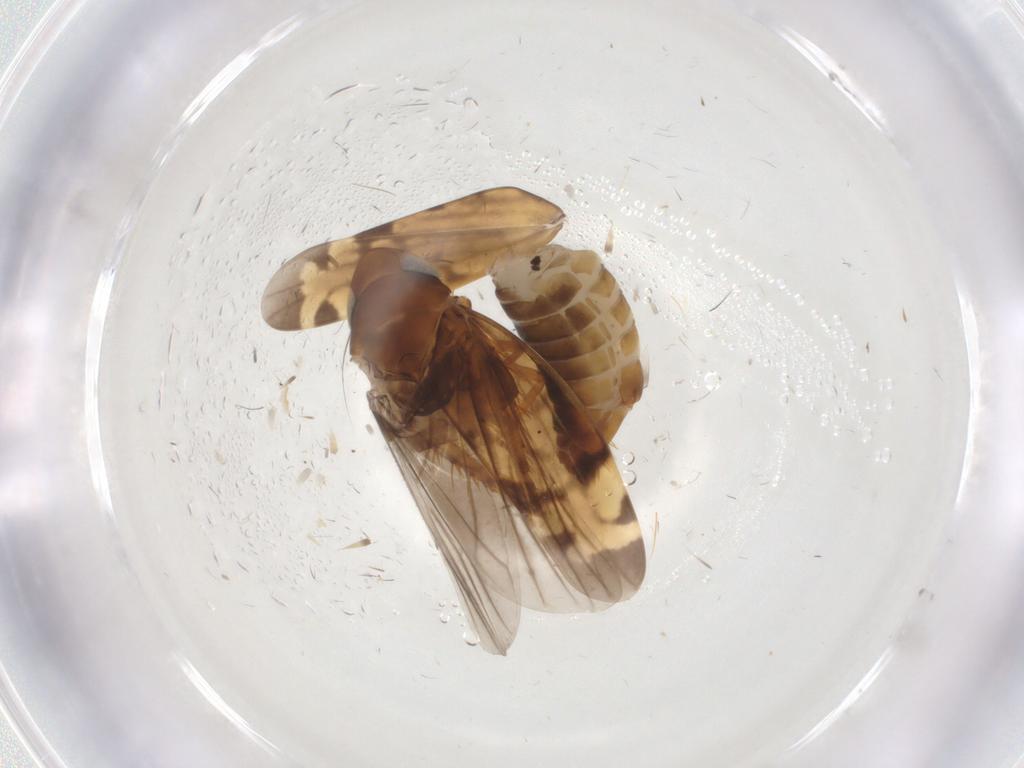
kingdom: Animalia
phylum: Arthropoda
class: Insecta
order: Hemiptera
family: Cicadellidae
